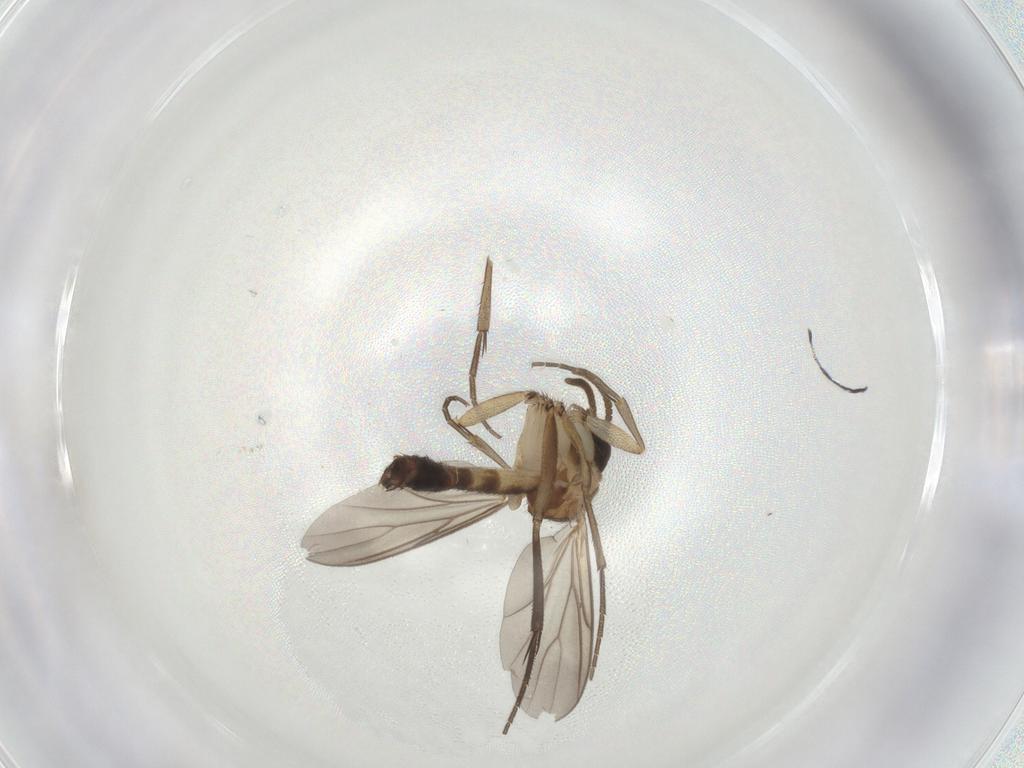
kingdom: Animalia
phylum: Arthropoda
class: Insecta
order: Diptera
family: Mycetophilidae
